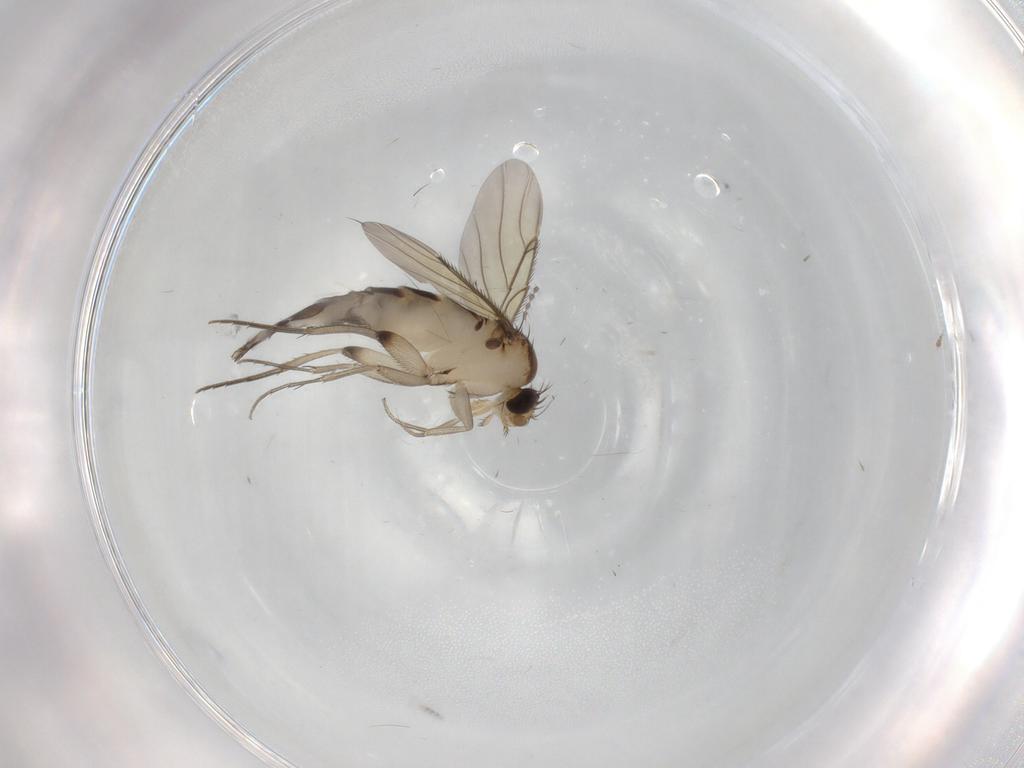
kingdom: Animalia
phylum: Arthropoda
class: Insecta
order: Diptera
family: Phoridae
